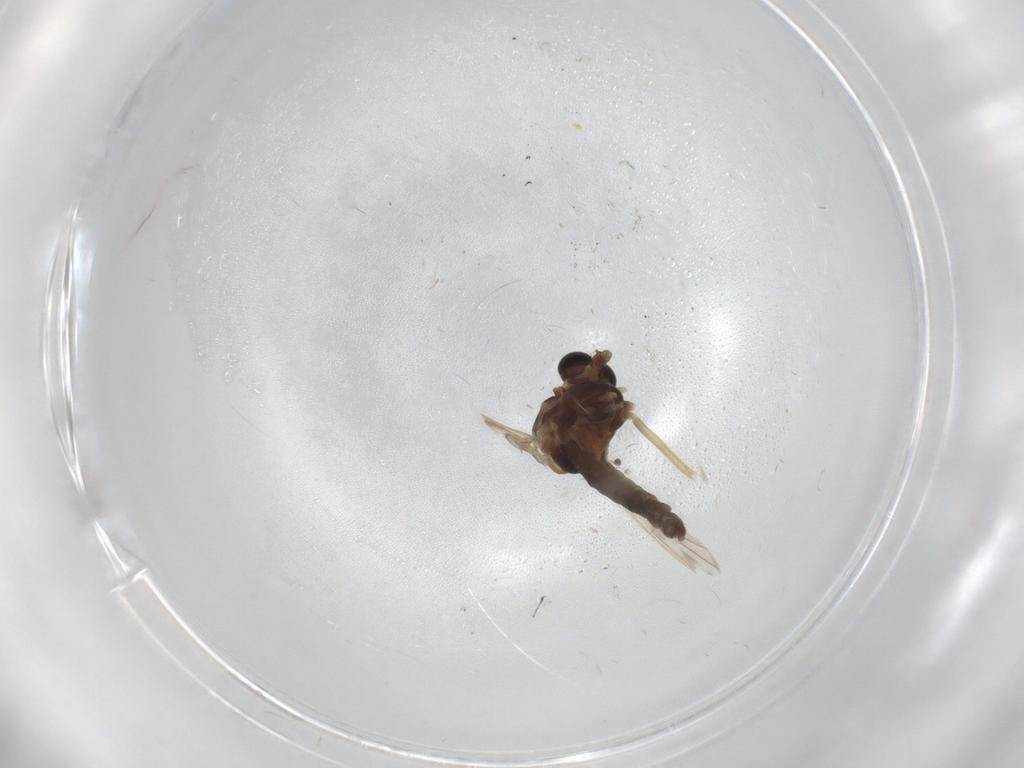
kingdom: Animalia
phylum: Arthropoda
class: Insecta
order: Diptera
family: Chironomidae
